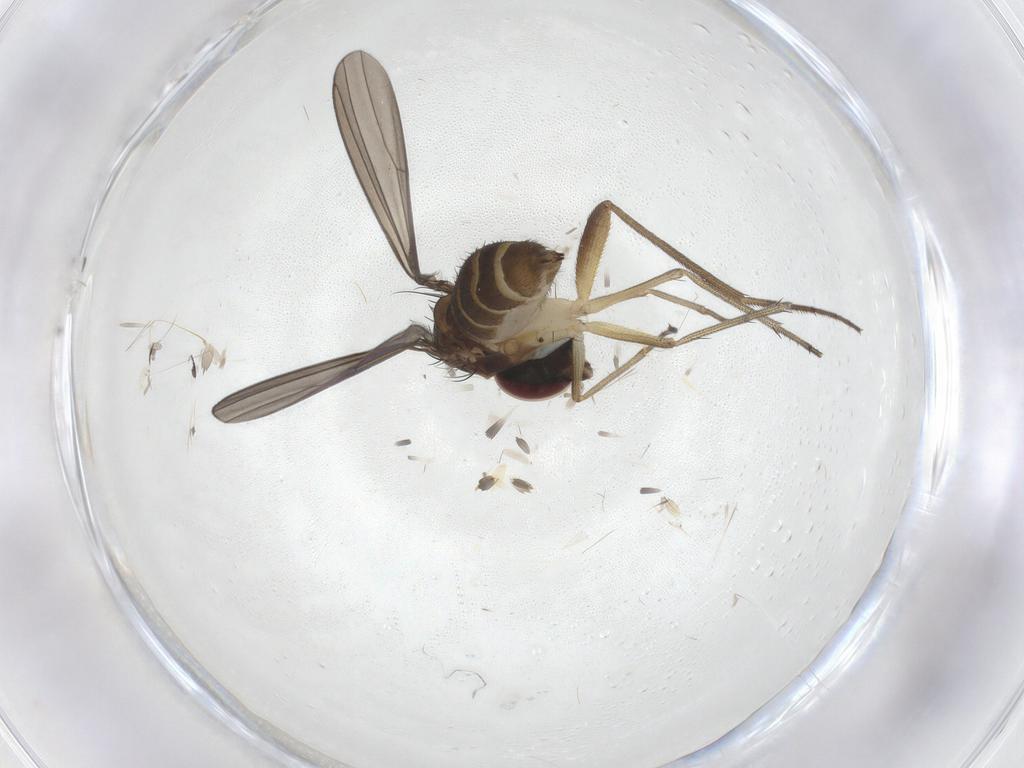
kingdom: Animalia
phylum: Arthropoda
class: Insecta
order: Diptera
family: Dolichopodidae
